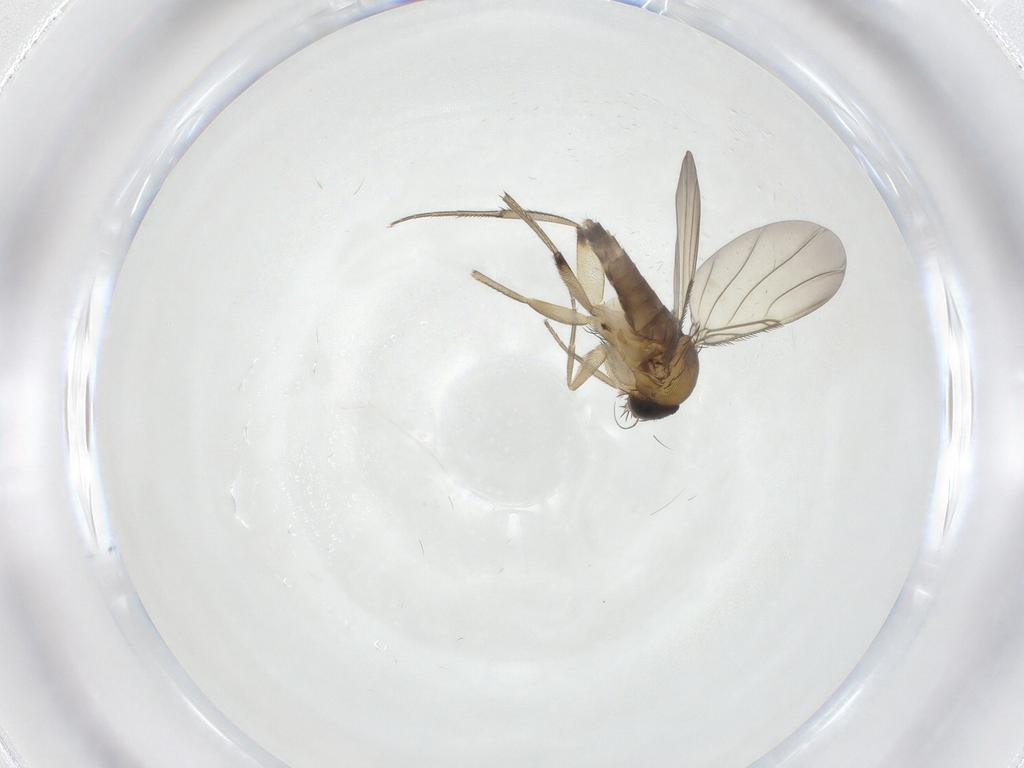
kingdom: Animalia
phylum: Arthropoda
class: Insecta
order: Diptera
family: Phoridae
